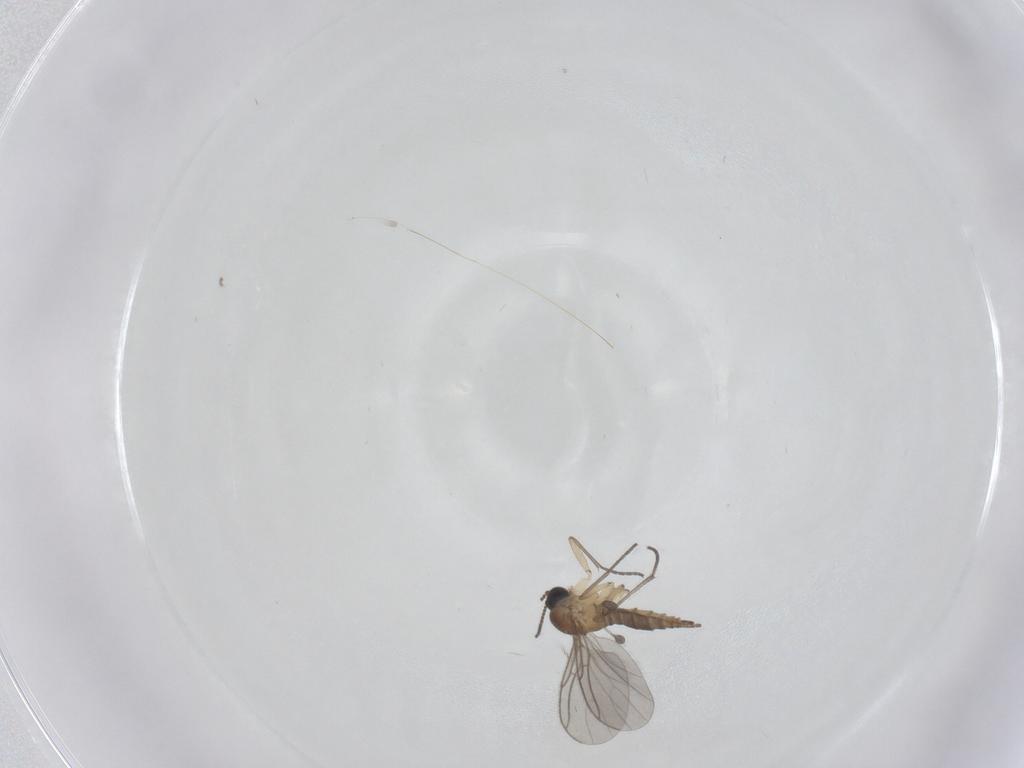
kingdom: Animalia
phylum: Arthropoda
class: Insecta
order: Diptera
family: Sciaridae
